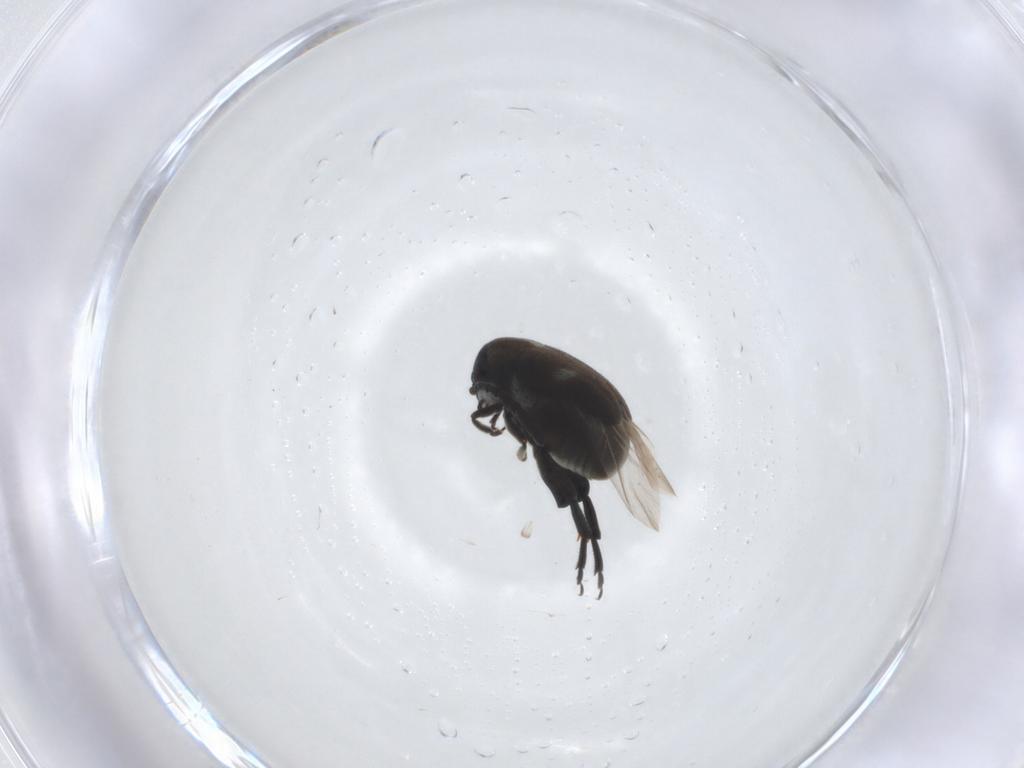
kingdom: Animalia
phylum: Arthropoda
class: Insecta
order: Coleoptera
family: Chrysomelidae
